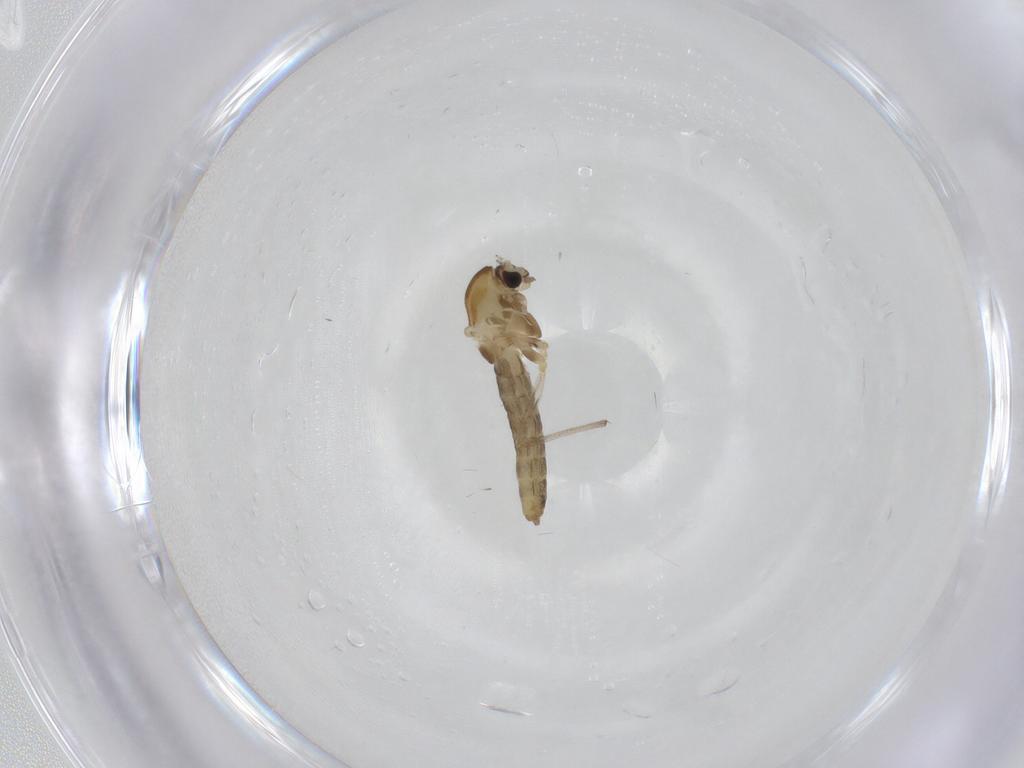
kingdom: Animalia
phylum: Arthropoda
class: Insecta
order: Diptera
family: Chironomidae
